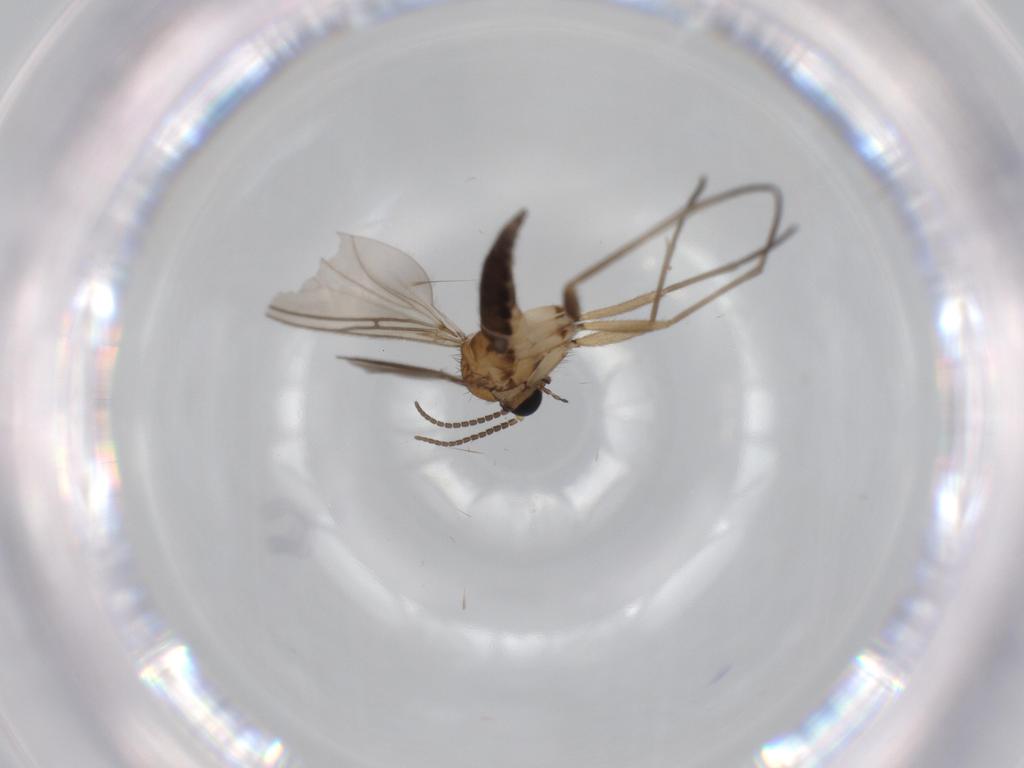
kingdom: Animalia
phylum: Arthropoda
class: Insecta
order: Diptera
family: Sciaridae
